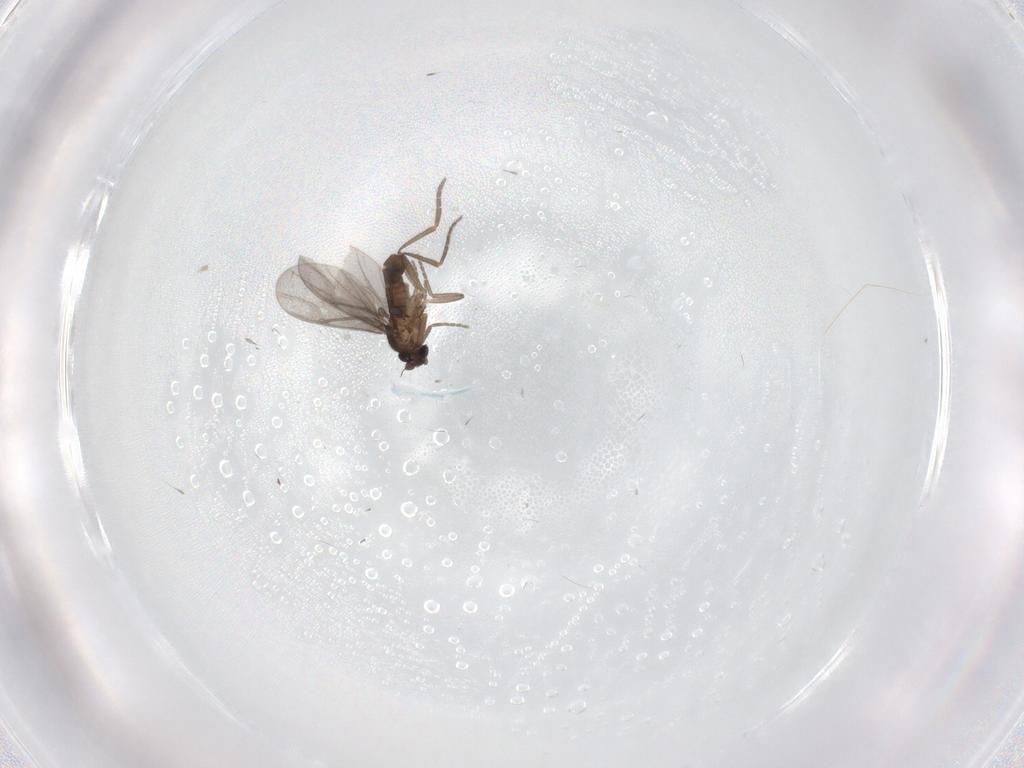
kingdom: Animalia
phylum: Arthropoda
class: Insecta
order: Diptera
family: Phoridae
